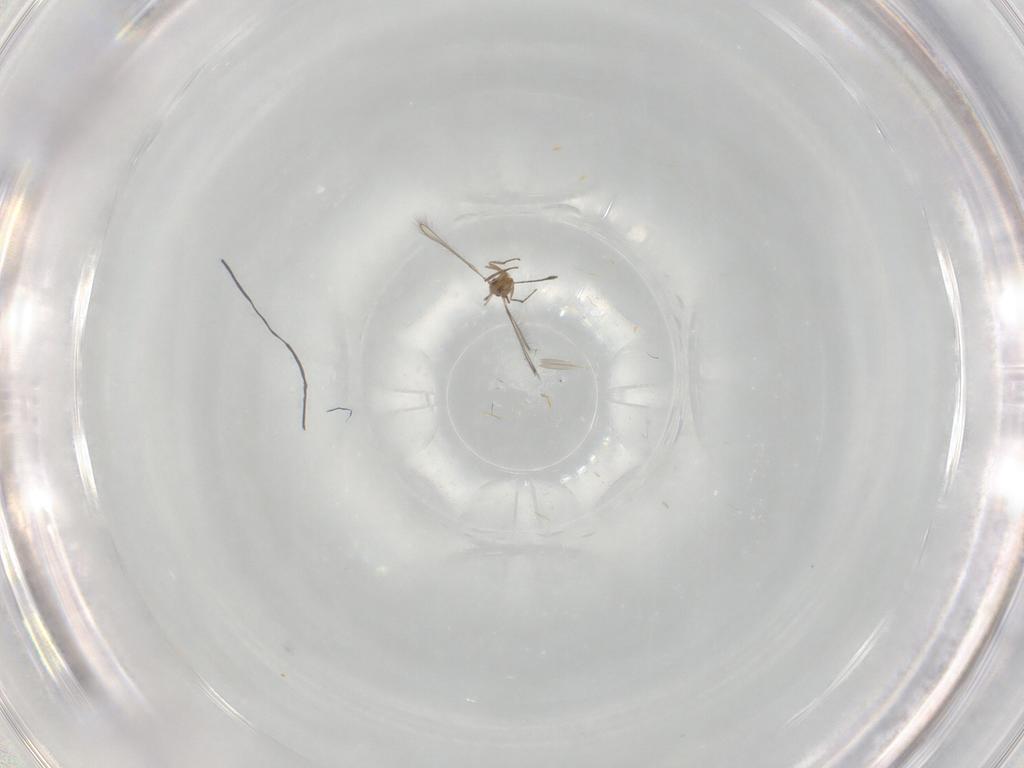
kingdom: Animalia
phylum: Arthropoda
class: Insecta
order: Hymenoptera
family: Mymaridae
